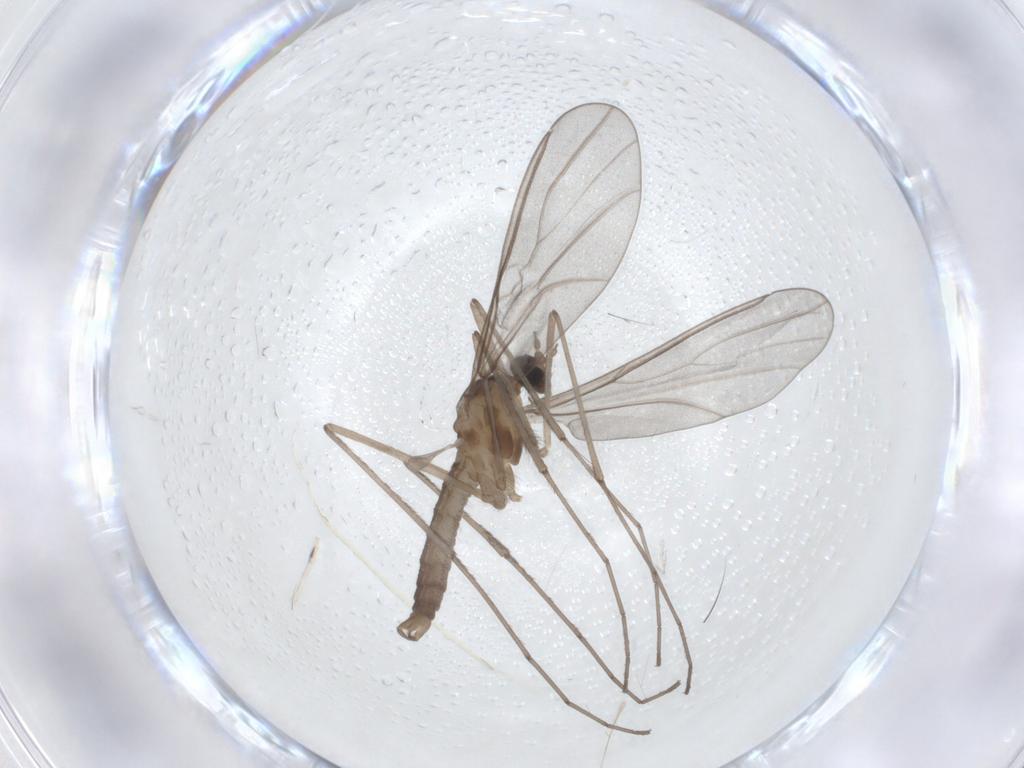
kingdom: Animalia
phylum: Arthropoda
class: Insecta
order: Diptera
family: Cecidomyiidae
